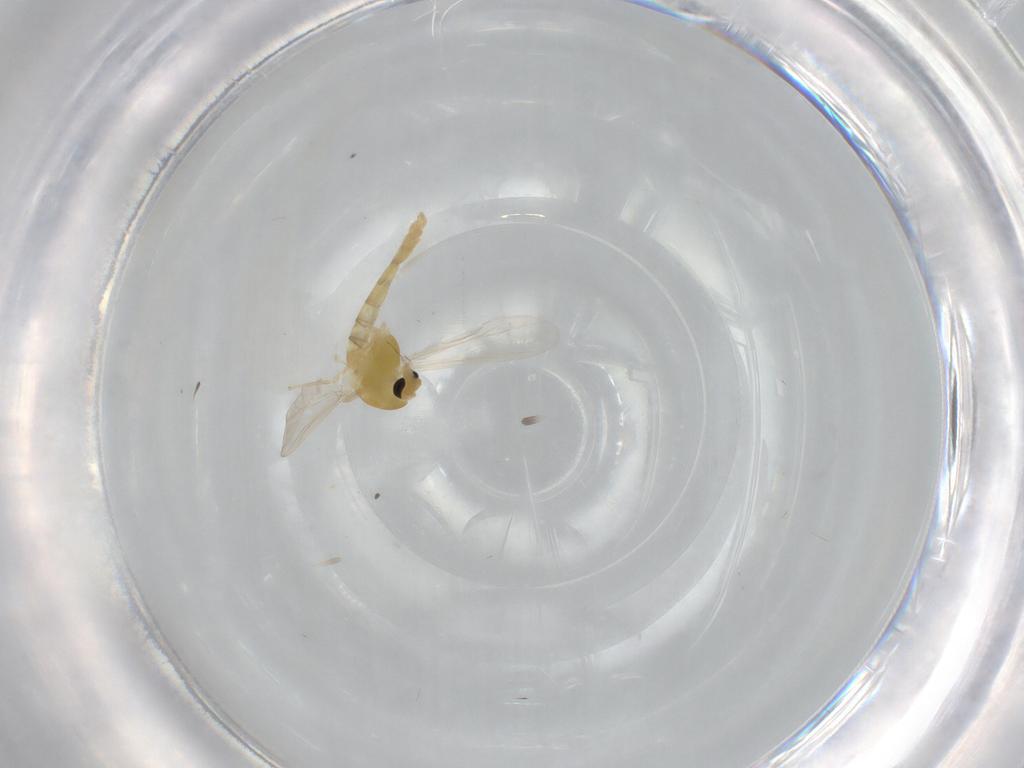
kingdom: Animalia
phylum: Arthropoda
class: Insecta
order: Diptera
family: Chironomidae
